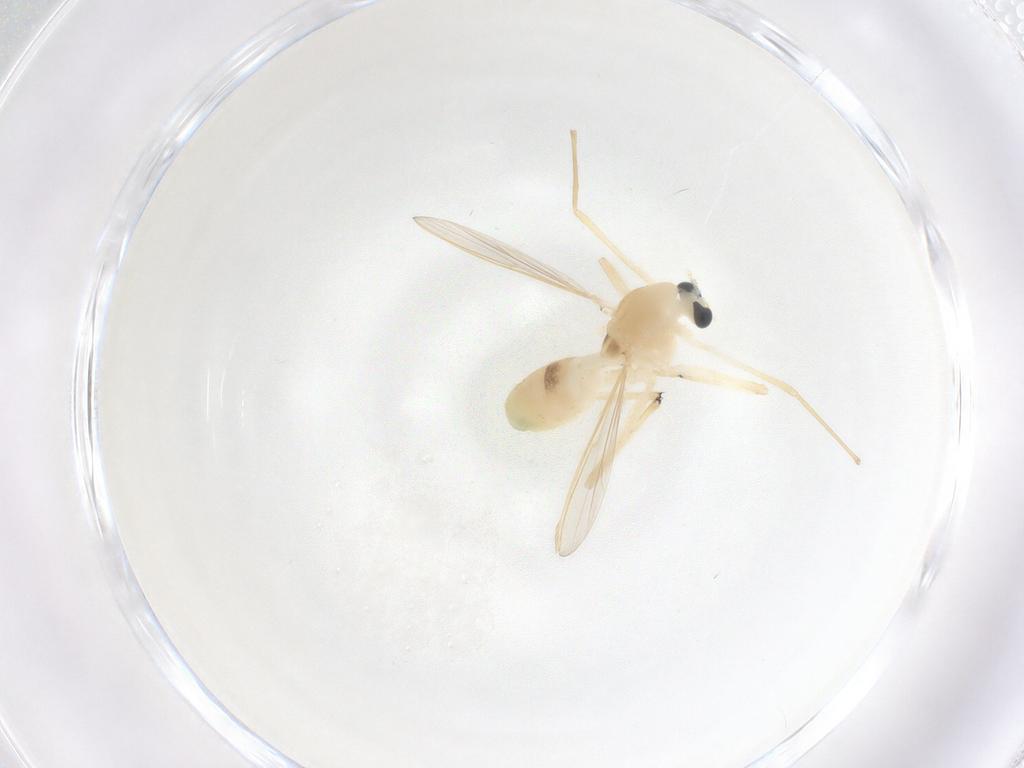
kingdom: Animalia
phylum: Arthropoda
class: Insecta
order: Diptera
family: Chironomidae
